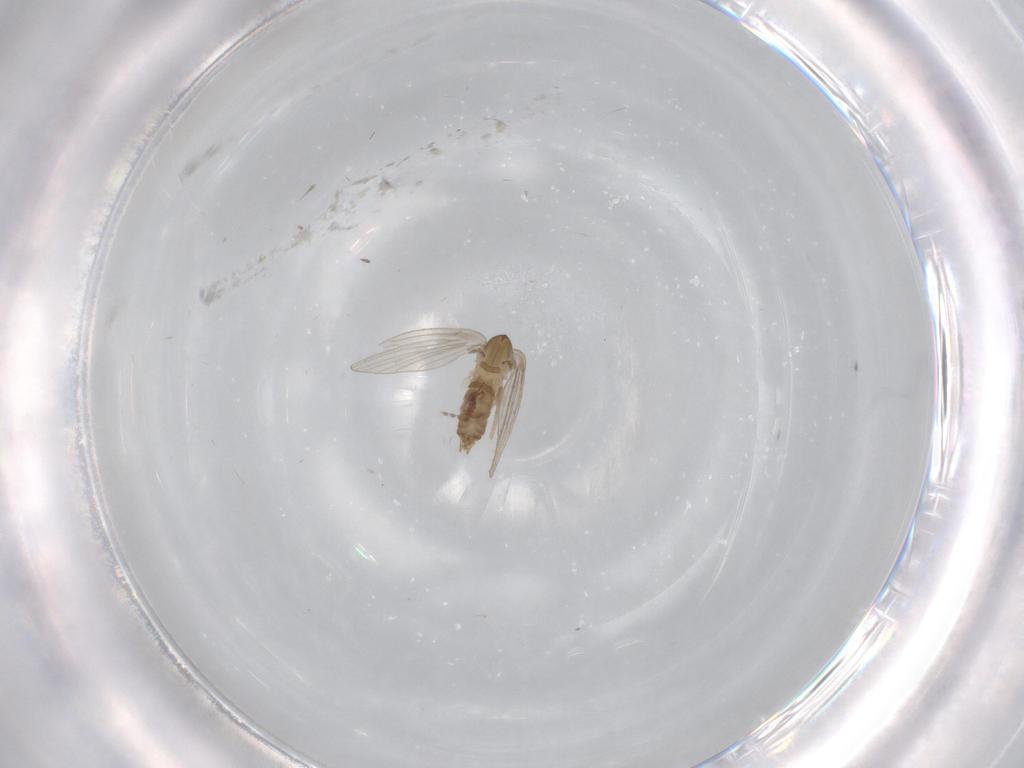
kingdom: Animalia
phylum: Arthropoda
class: Insecta
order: Diptera
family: Psychodidae
